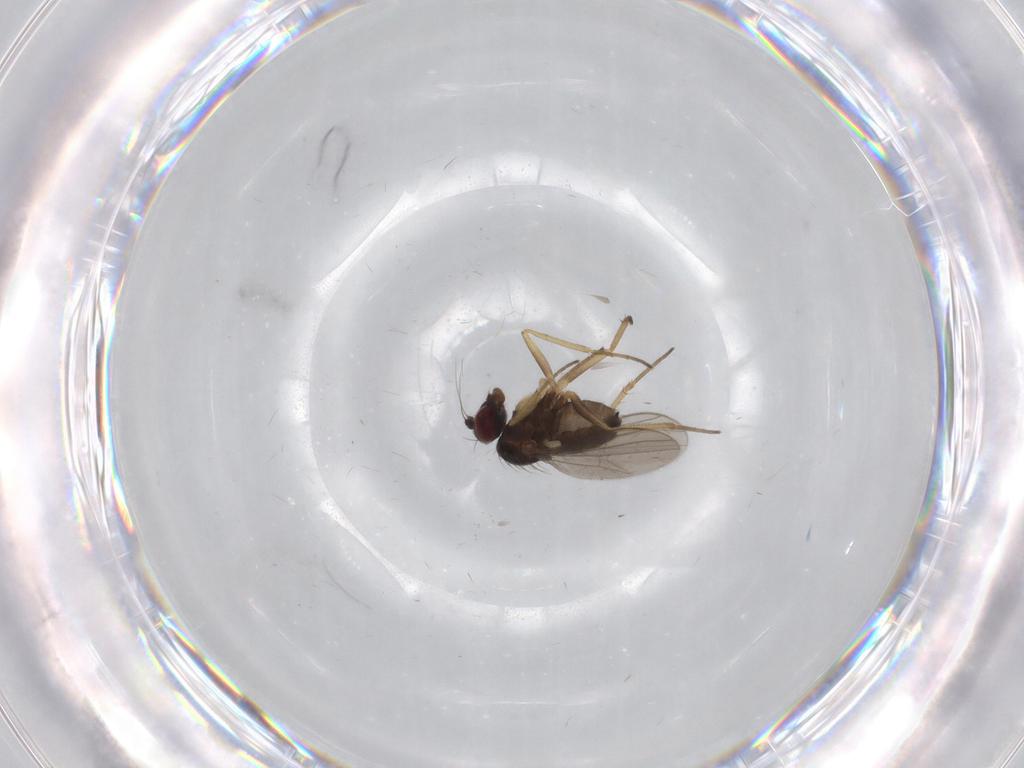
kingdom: Animalia
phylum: Arthropoda
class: Insecta
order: Diptera
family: Dolichopodidae
